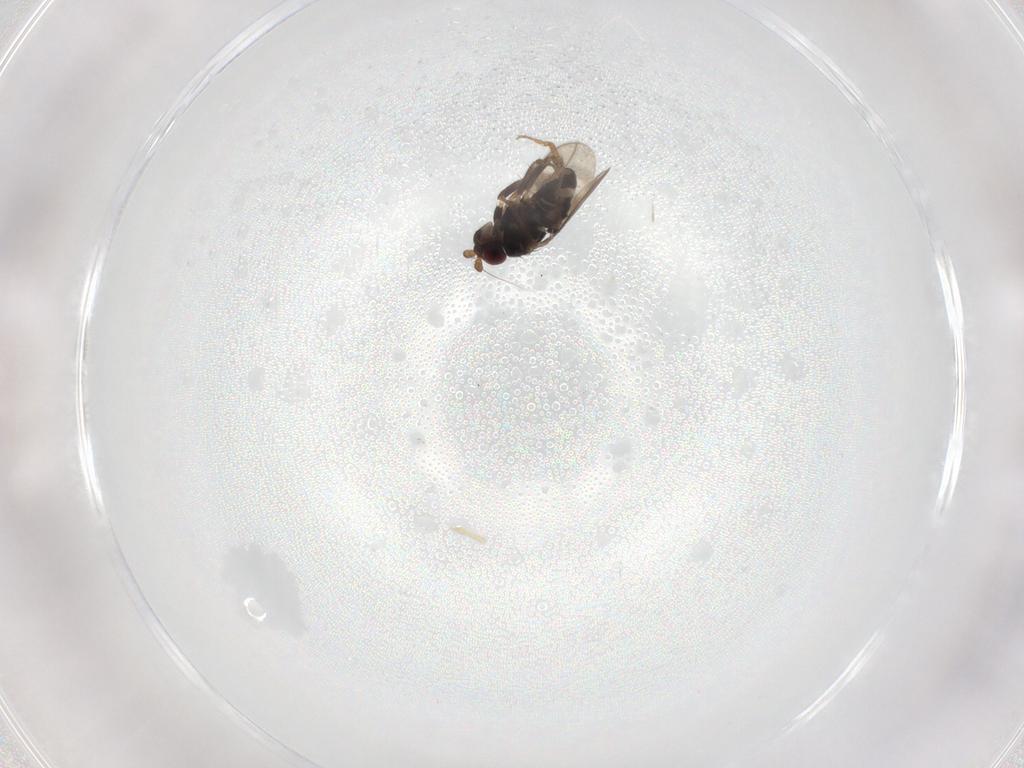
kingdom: Animalia
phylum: Arthropoda
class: Insecta
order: Diptera
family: Sphaeroceridae
